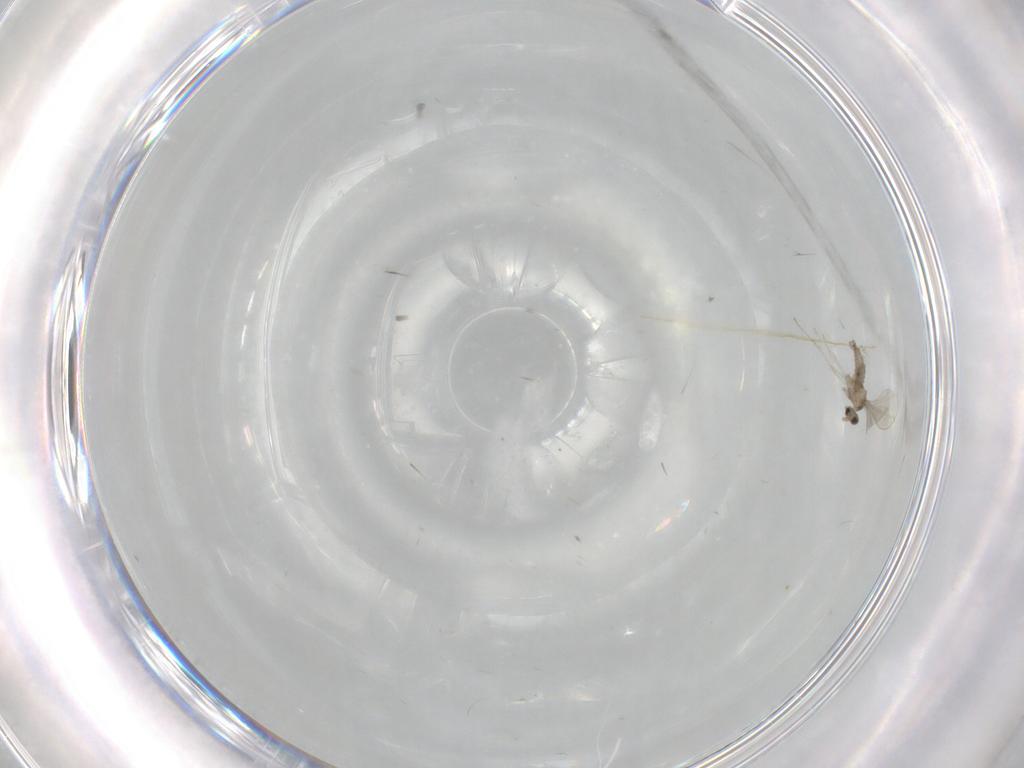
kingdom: Animalia
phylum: Arthropoda
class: Insecta
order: Diptera
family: Cecidomyiidae
